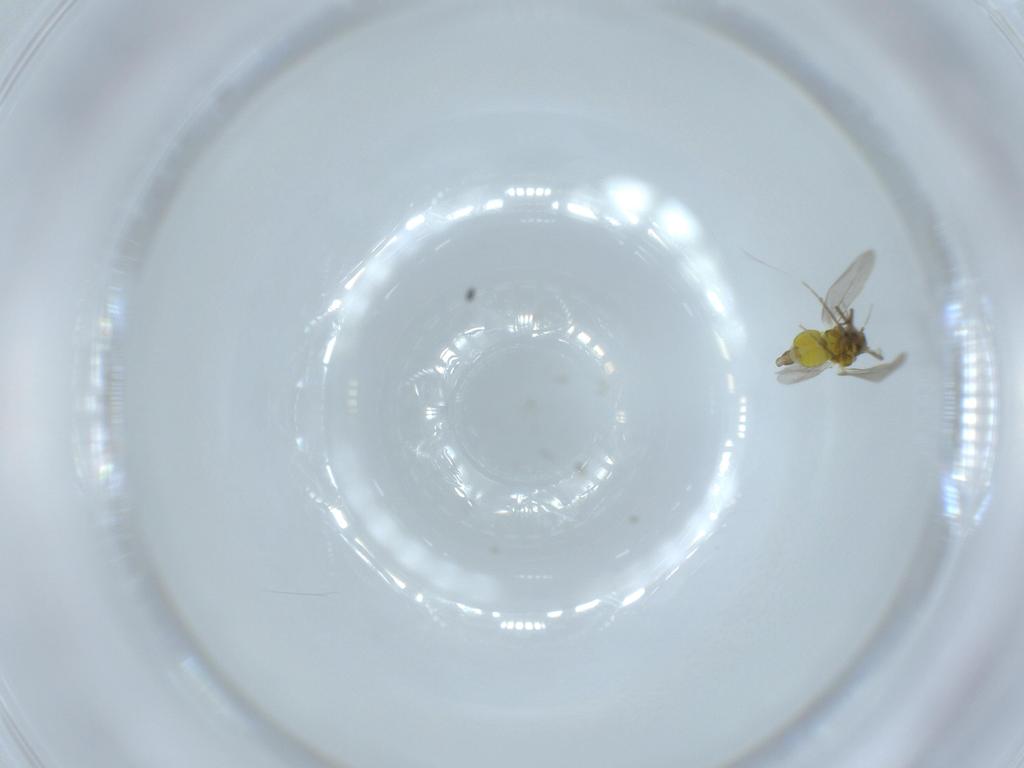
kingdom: Animalia
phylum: Arthropoda
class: Insecta
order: Hemiptera
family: Aleyrodidae
